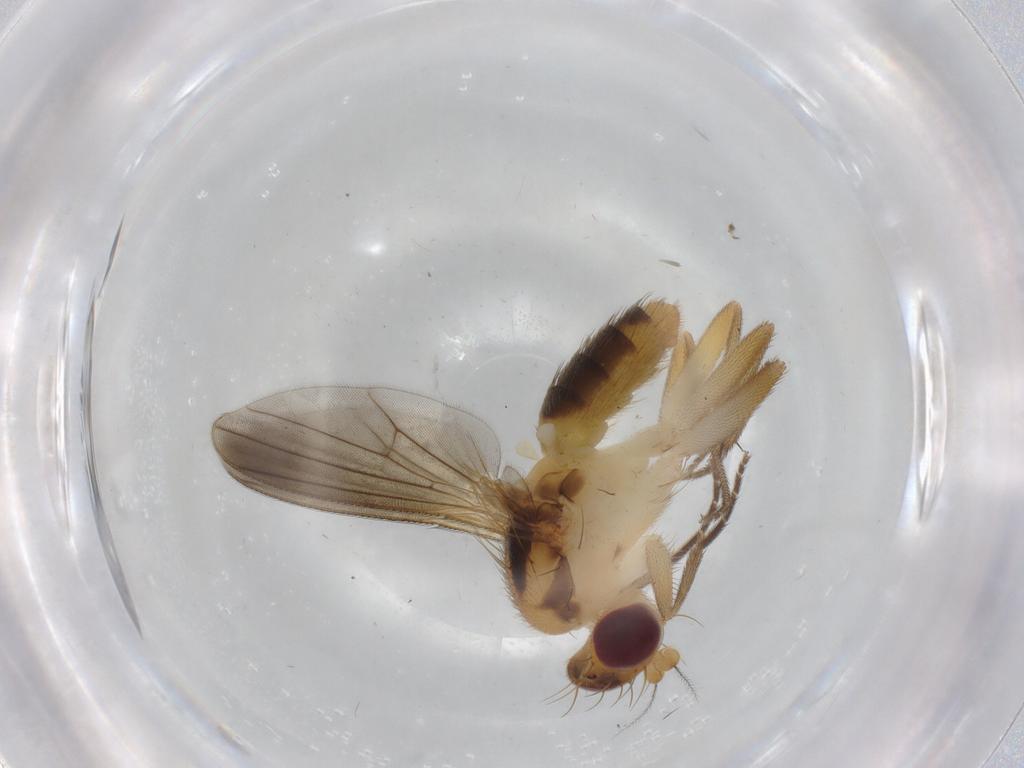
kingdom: Animalia
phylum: Arthropoda
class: Insecta
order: Diptera
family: Clusiidae
